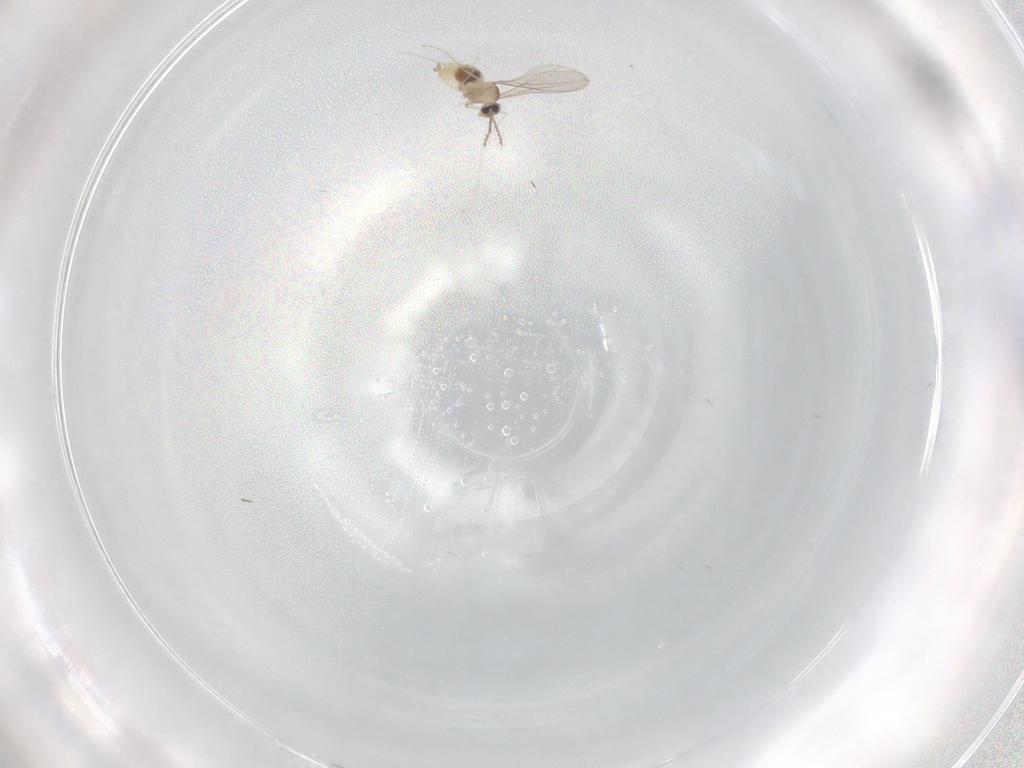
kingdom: Animalia
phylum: Arthropoda
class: Insecta
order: Diptera
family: Cecidomyiidae
